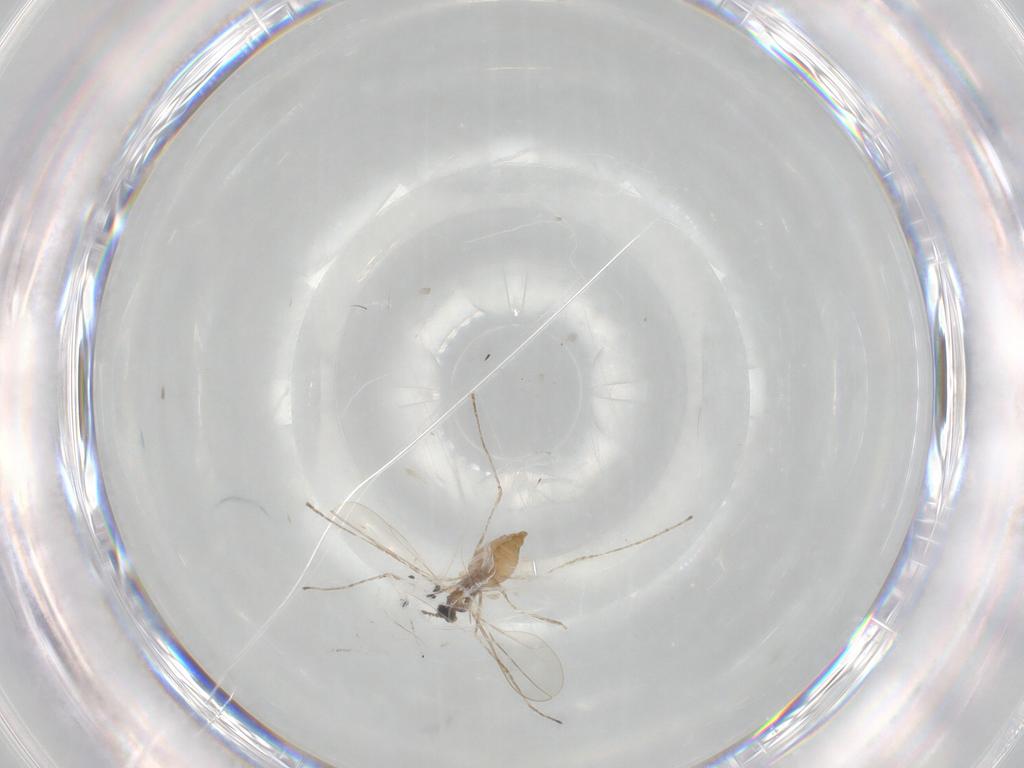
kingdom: Animalia
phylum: Arthropoda
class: Insecta
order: Diptera
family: Cecidomyiidae
